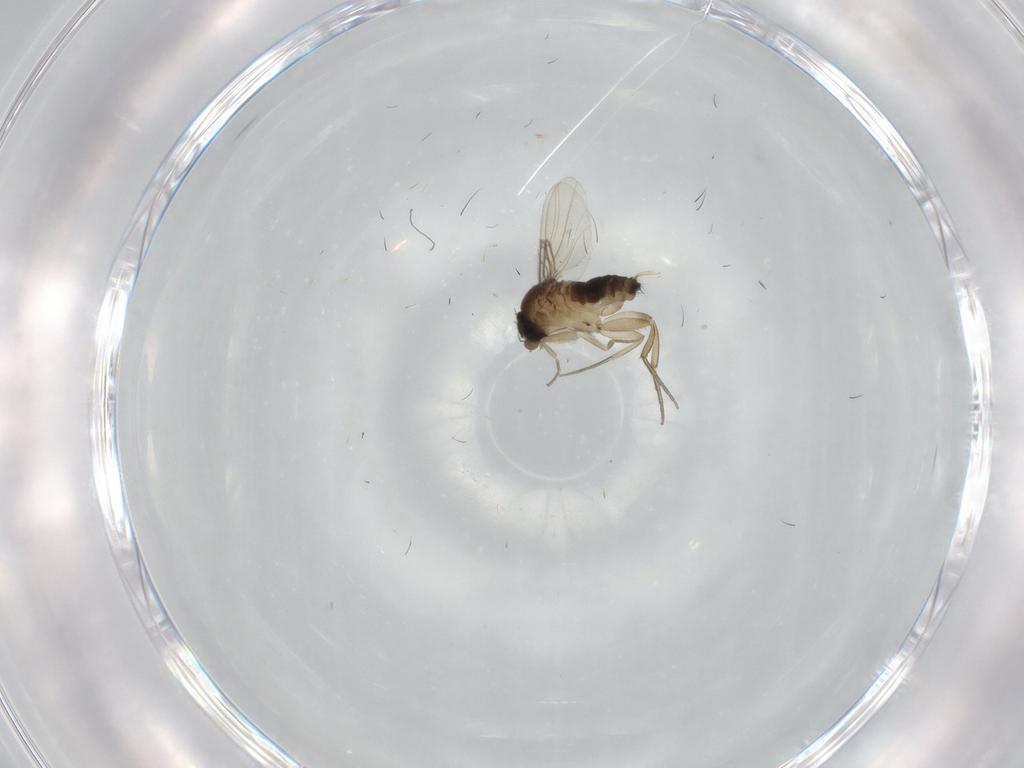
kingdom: Animalia
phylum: Arthropoda
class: Insecta
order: Diptera
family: Phoridae
